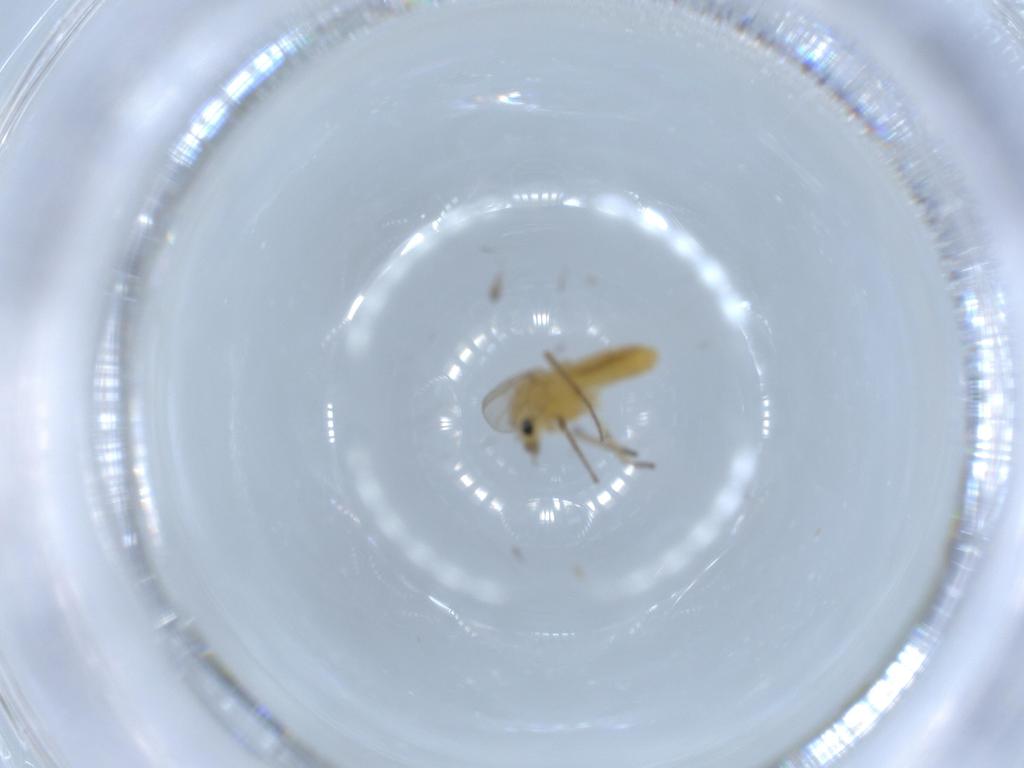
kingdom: Animalia
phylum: Arthropoda
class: Insecta
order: Diptera
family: Chironomidae
